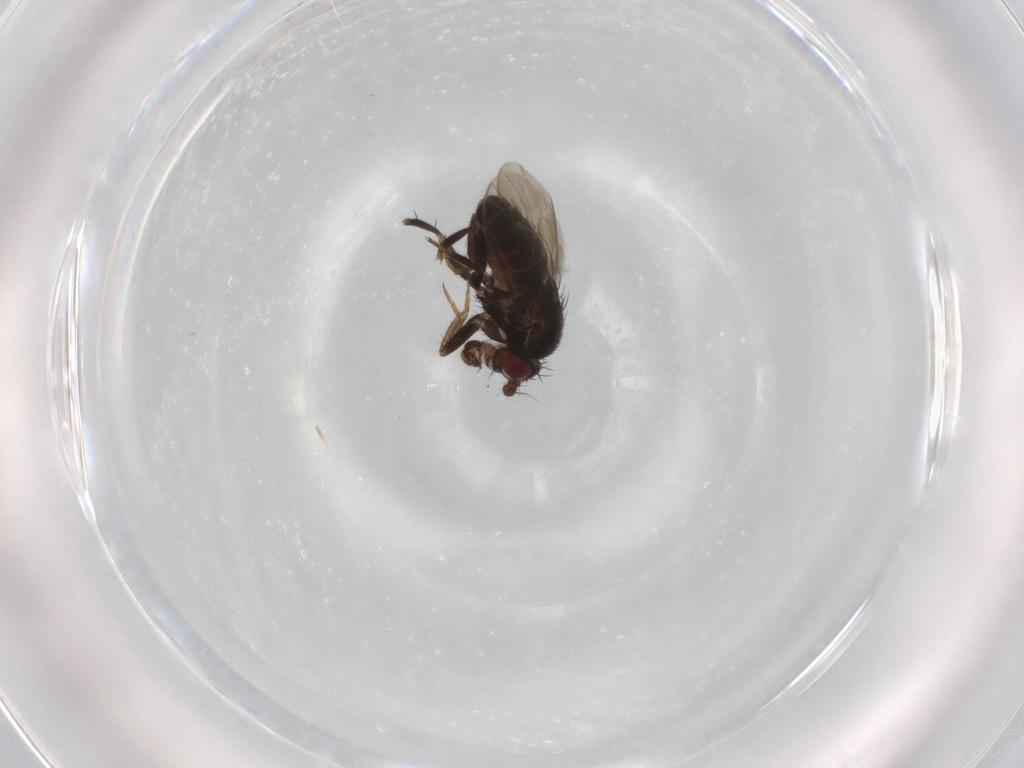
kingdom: Animalia
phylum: Arthropoda
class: Insecta
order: Diptera
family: Sphaeroceridae
